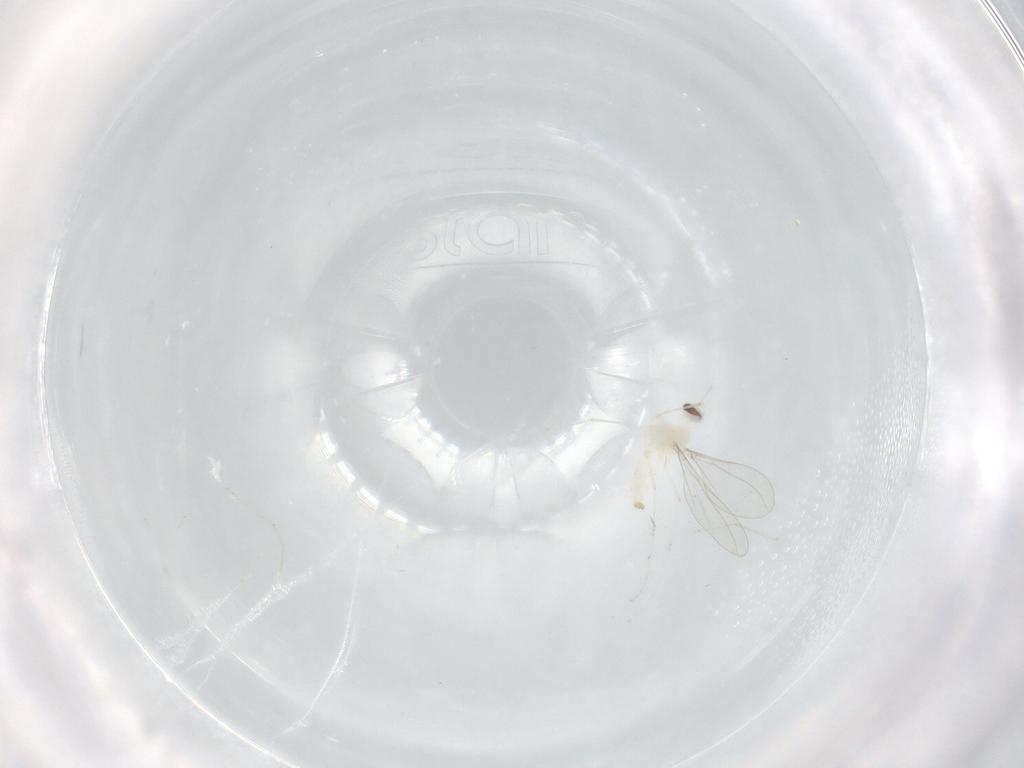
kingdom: Animalia
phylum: Arthropoda
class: Insecta
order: Diptera
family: Cecidomyiidae
